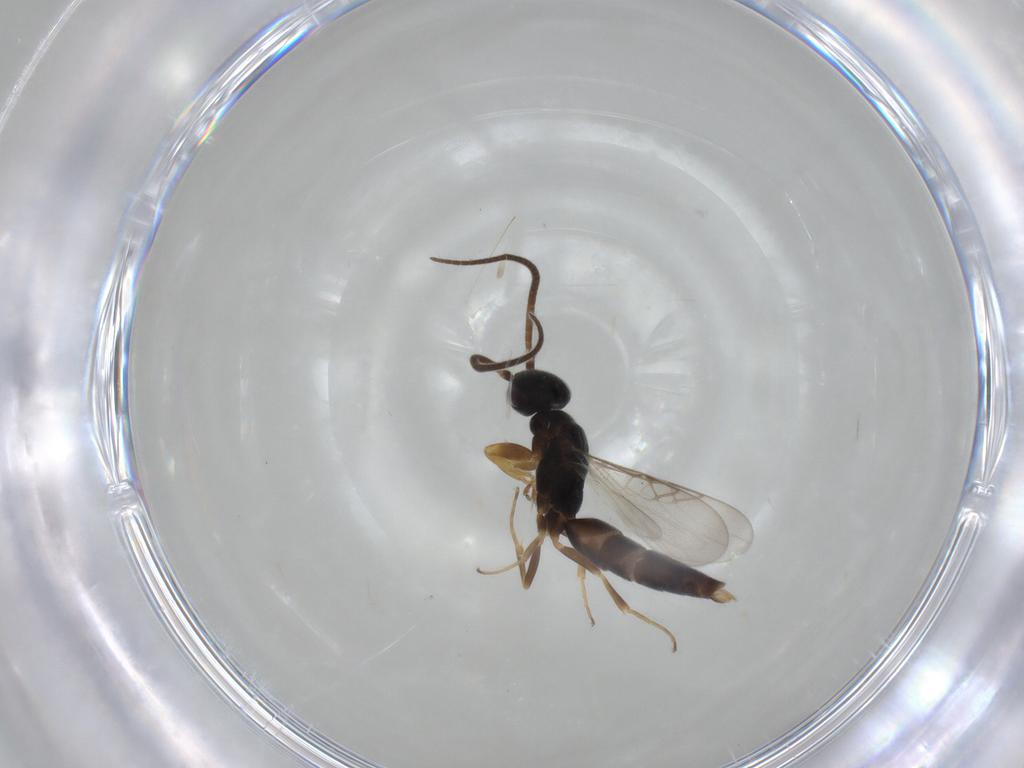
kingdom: Animalia
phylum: Arthropoda
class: Insecta
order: Hymenoptera
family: Sclerogibbidae
